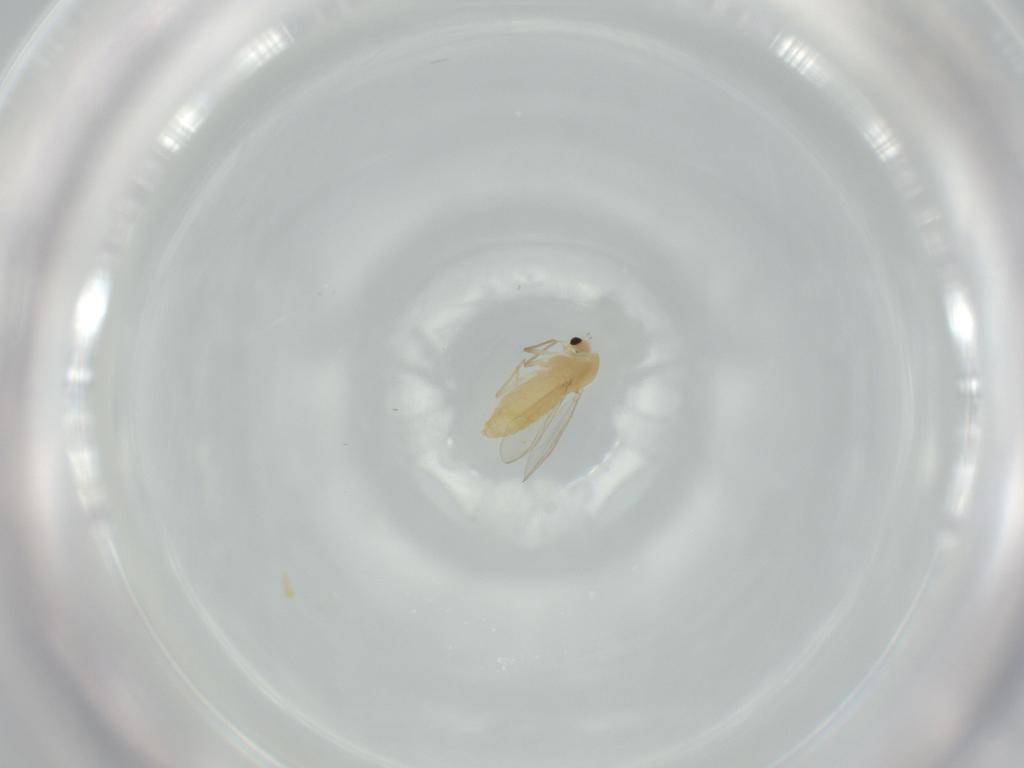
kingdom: Animalia
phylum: Arthropoda
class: Insecta
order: Diptera
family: Chironomidae
